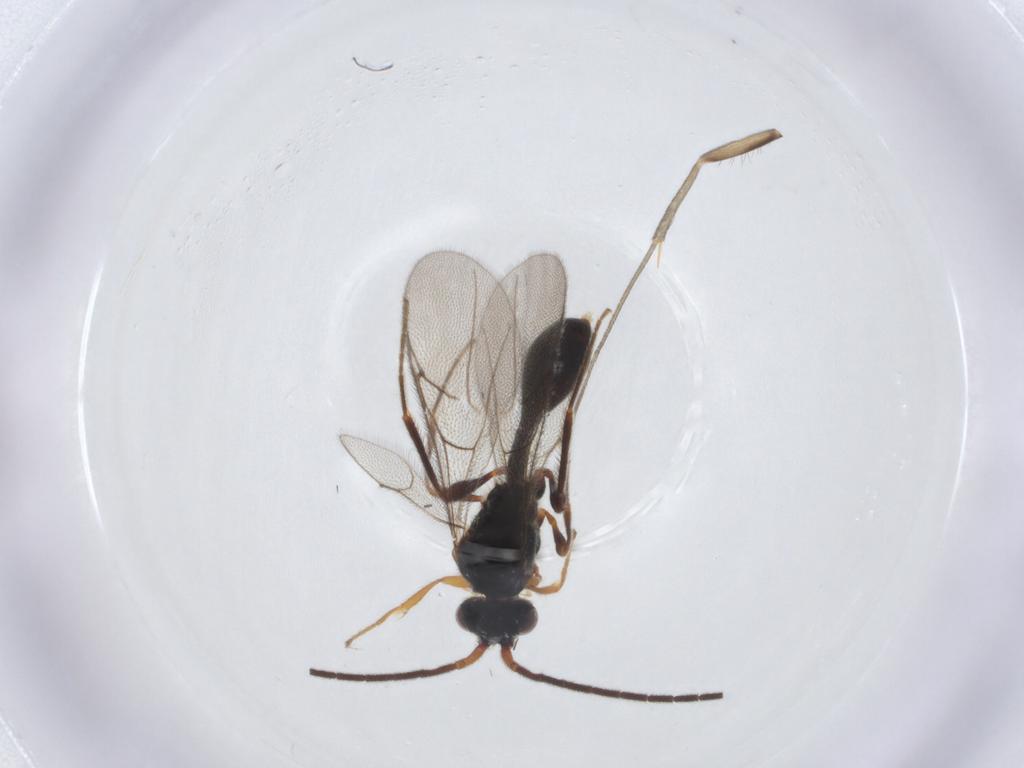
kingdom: Animalia
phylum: Arthropoda
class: Insecta
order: Hymenoptera
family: Diapriidae
